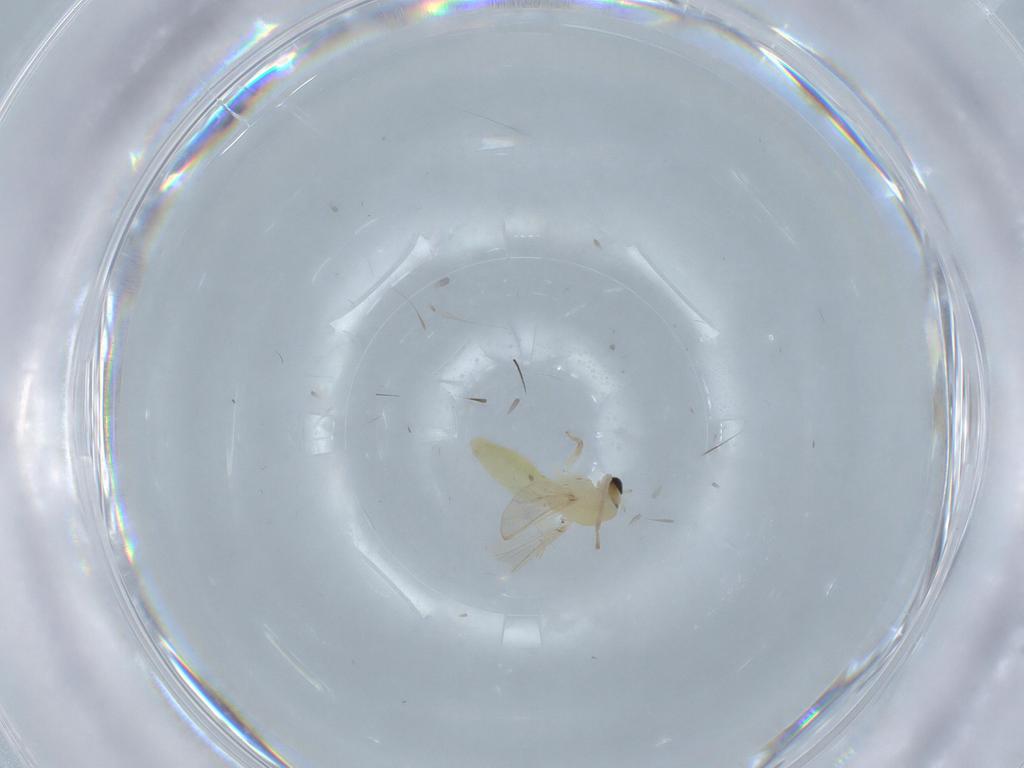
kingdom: Animalia
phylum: Arthropoda
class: Insecta
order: Diptera
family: Chironomidae
